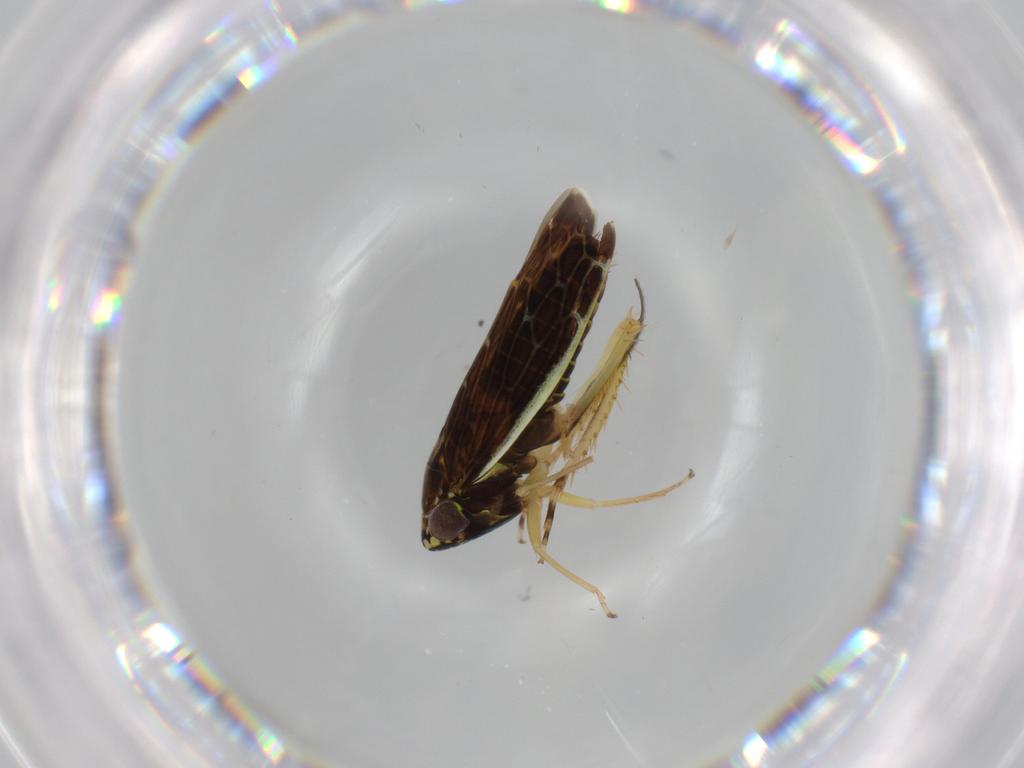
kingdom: Animalia
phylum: Arthropoda
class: Insecta
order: Hemiptera
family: Cicadellidae
